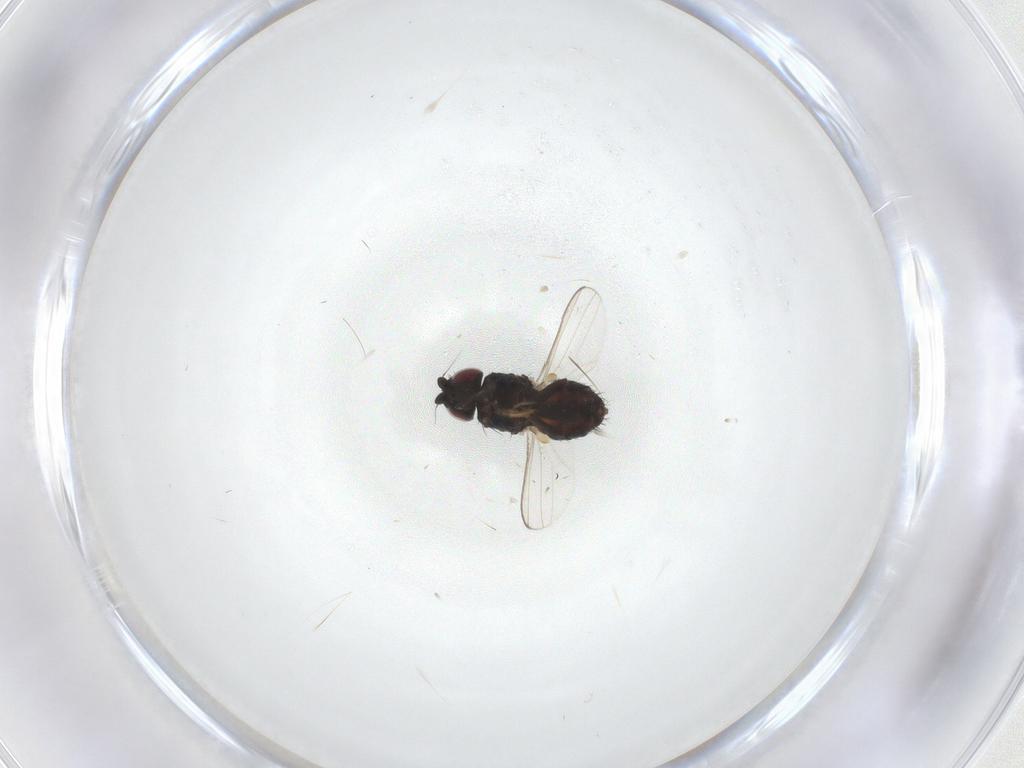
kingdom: Animalia
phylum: Arthropoda
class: Insecta
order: Diptera
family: Milichiidae
